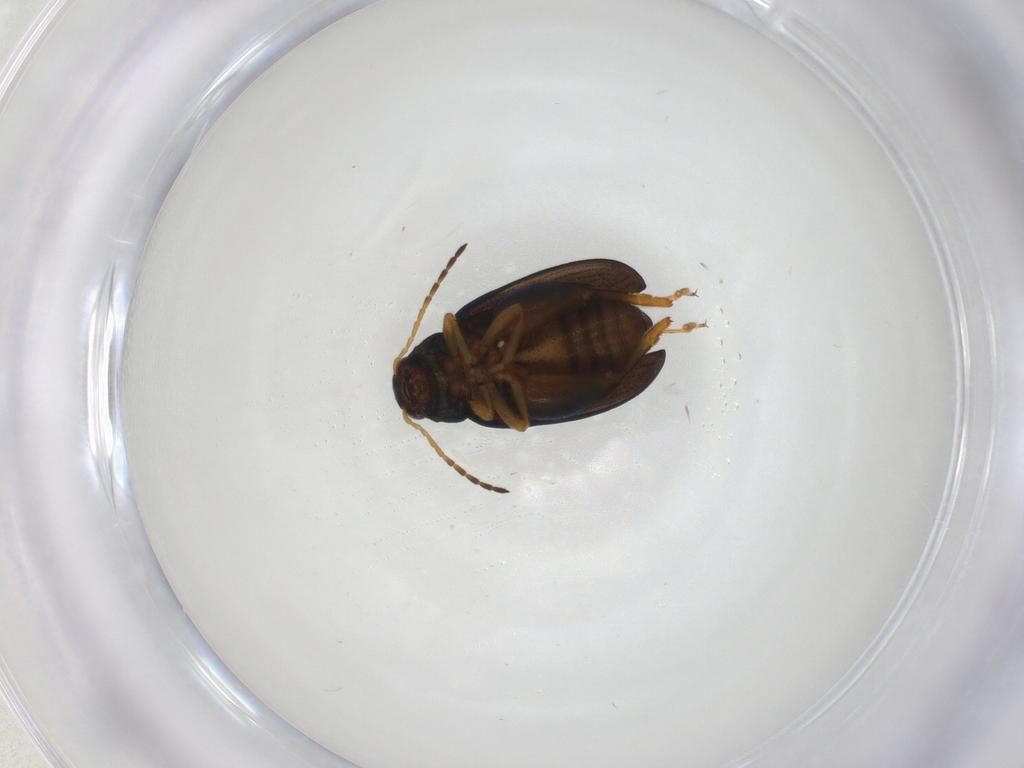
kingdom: Animalia
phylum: Arthropoda
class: Insecta
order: Coleoptera
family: Chrysomelidae
